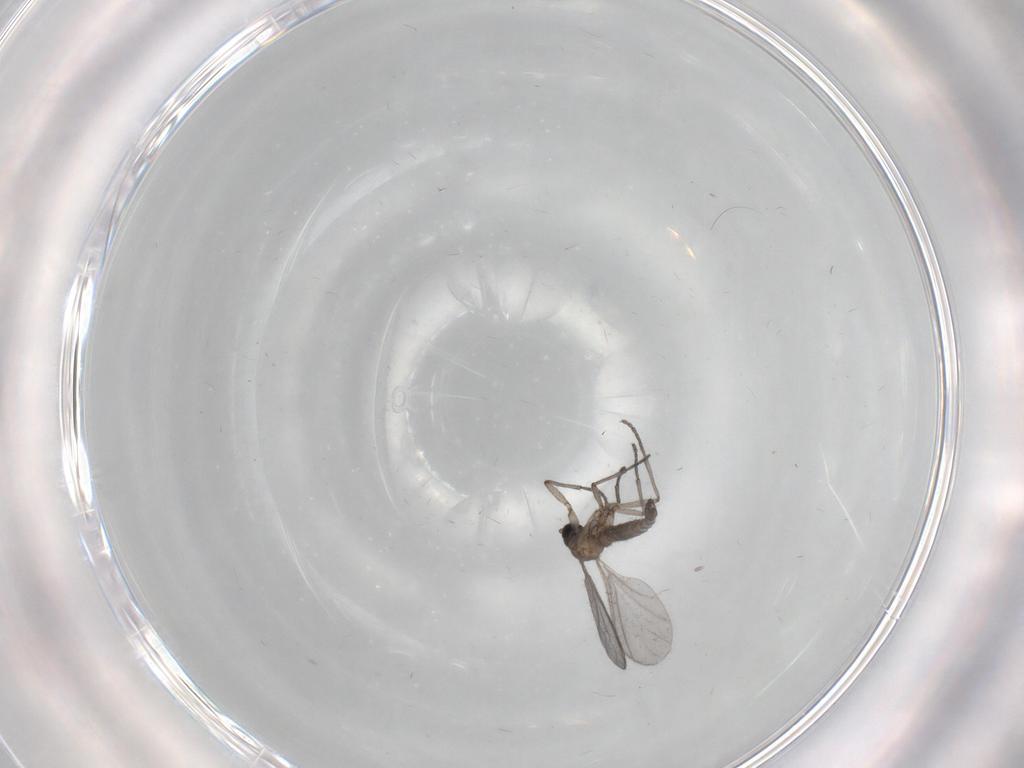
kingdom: Animalia
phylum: Arthropoda
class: Insecta
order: Diptera
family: Sciaridae
